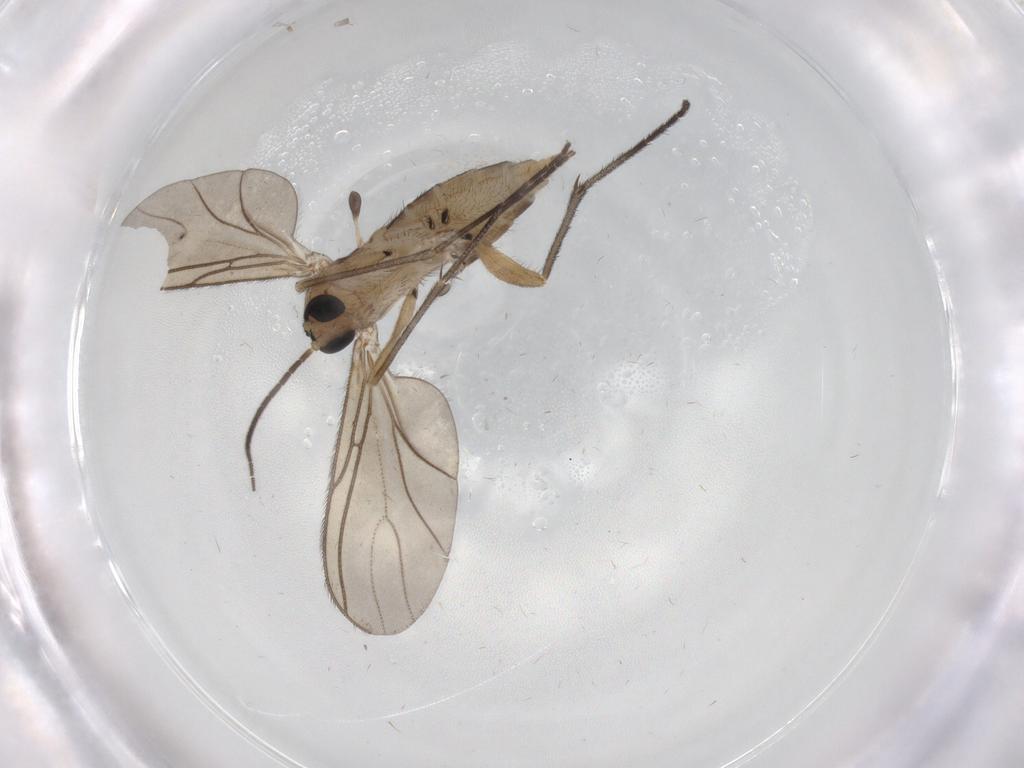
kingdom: Animalia
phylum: Arthropoda
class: Insecta
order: Diptera
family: Sciaridae
